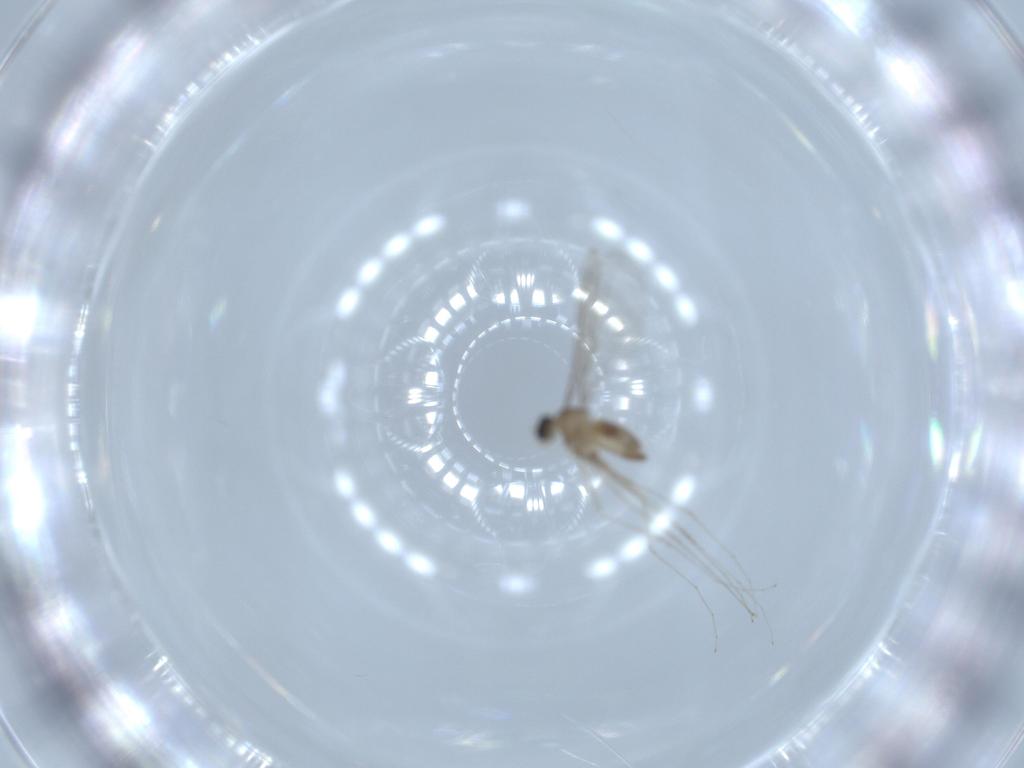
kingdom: Animalia
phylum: Arthropoda
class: Insecta
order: Diptera
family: Cecidomyiidae
